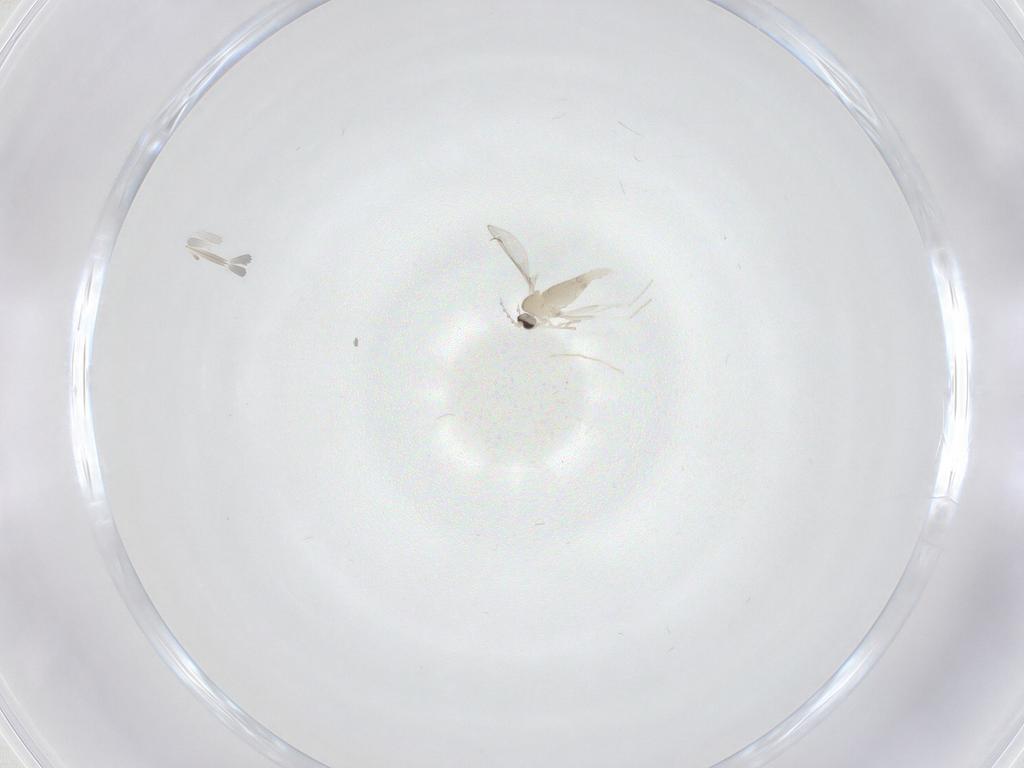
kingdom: Animalia
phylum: Arthropoda
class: Insecta
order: Diptera
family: Cecidomyiidae
